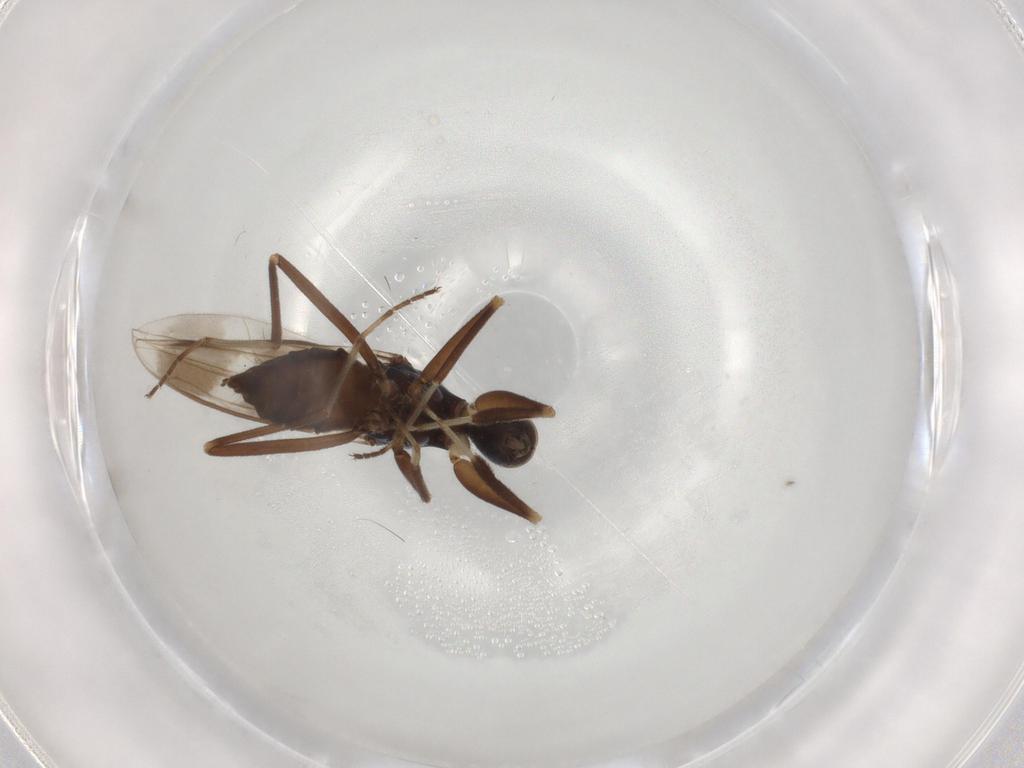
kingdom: Animalia
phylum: Arthropoda
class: Insecta
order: Diptera
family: Hybotidae
